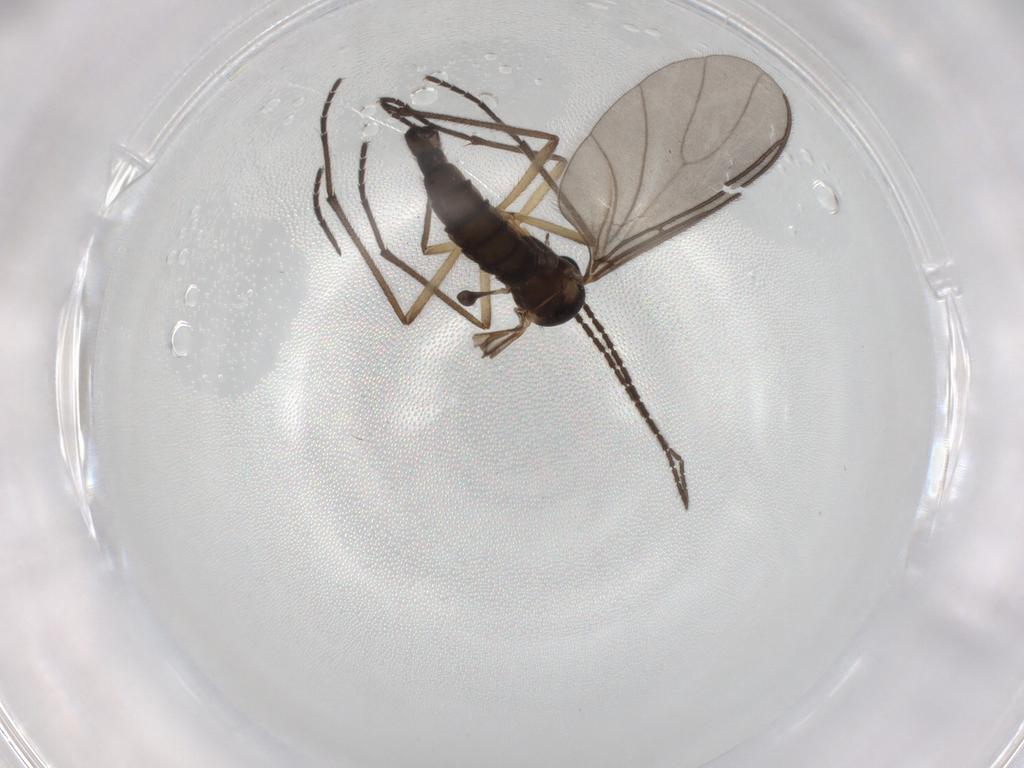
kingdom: Animalia
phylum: Arthropoda
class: Insecta
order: Diptera
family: Sciaridae
